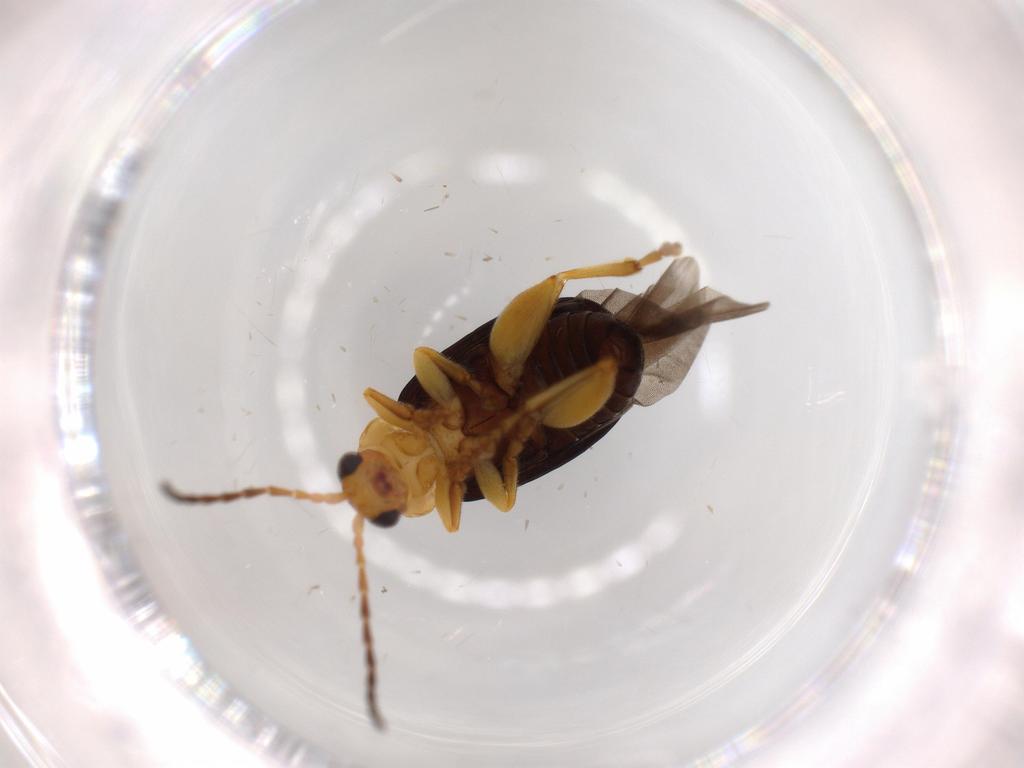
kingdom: Animalia
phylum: Arthropoda
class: Insecta
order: Coleoptera
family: Chrysomelidae
